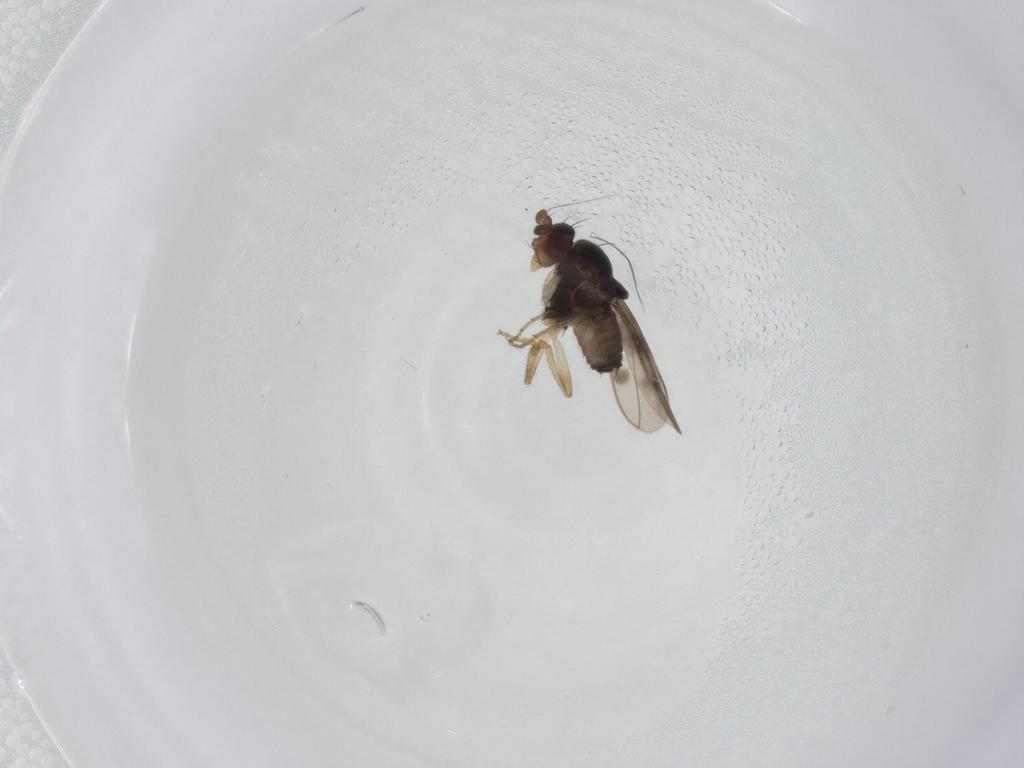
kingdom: Animalia
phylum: Arthropoda
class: Insecta
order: Diptera
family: Sphaeroceridae
